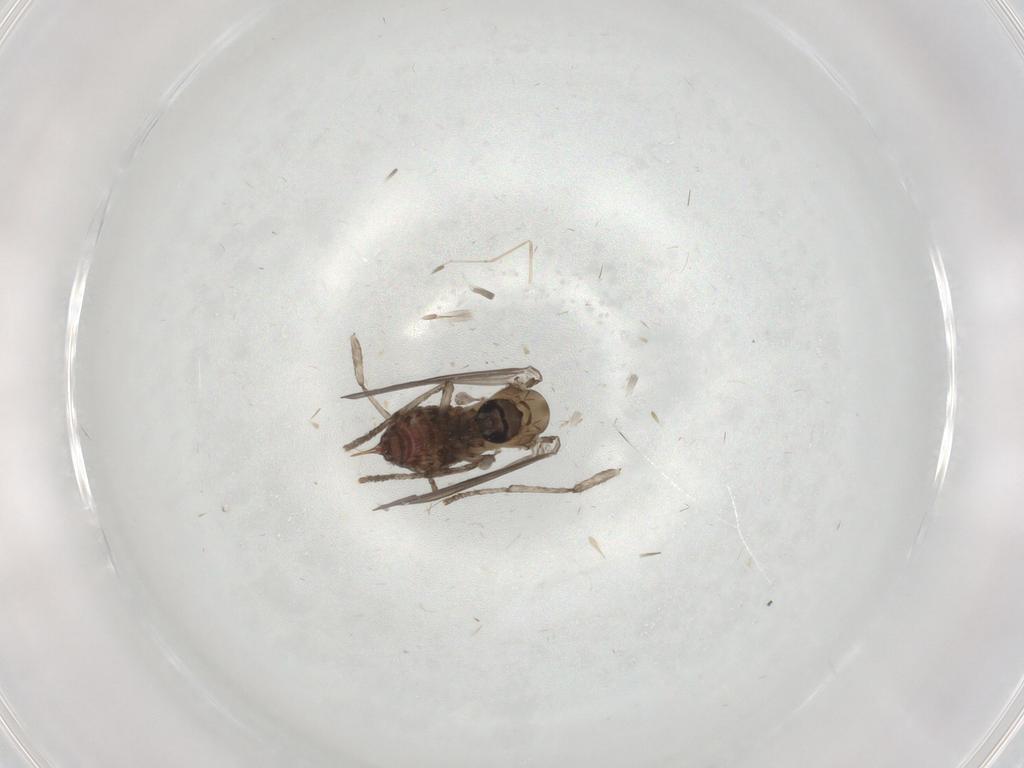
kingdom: Animalia
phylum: Arthropoda
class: Insecta
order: Diptera
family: Psychodidae
